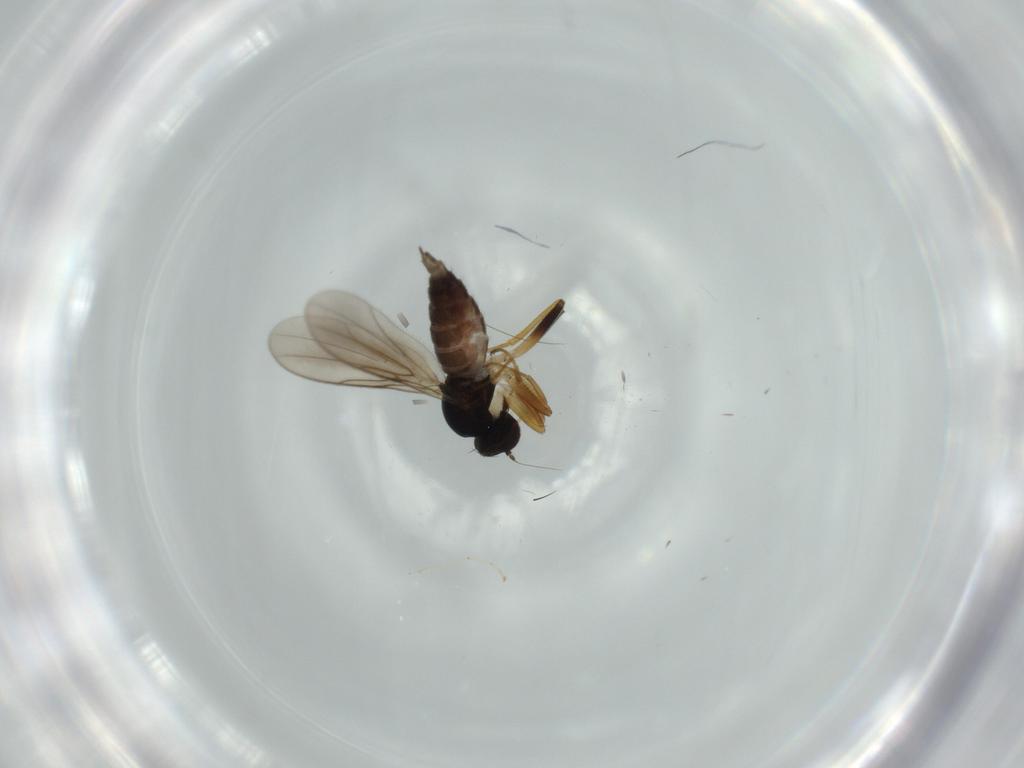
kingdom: Animalia
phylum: Arthropoda
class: Insecta
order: Diptera
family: Hybotidae
